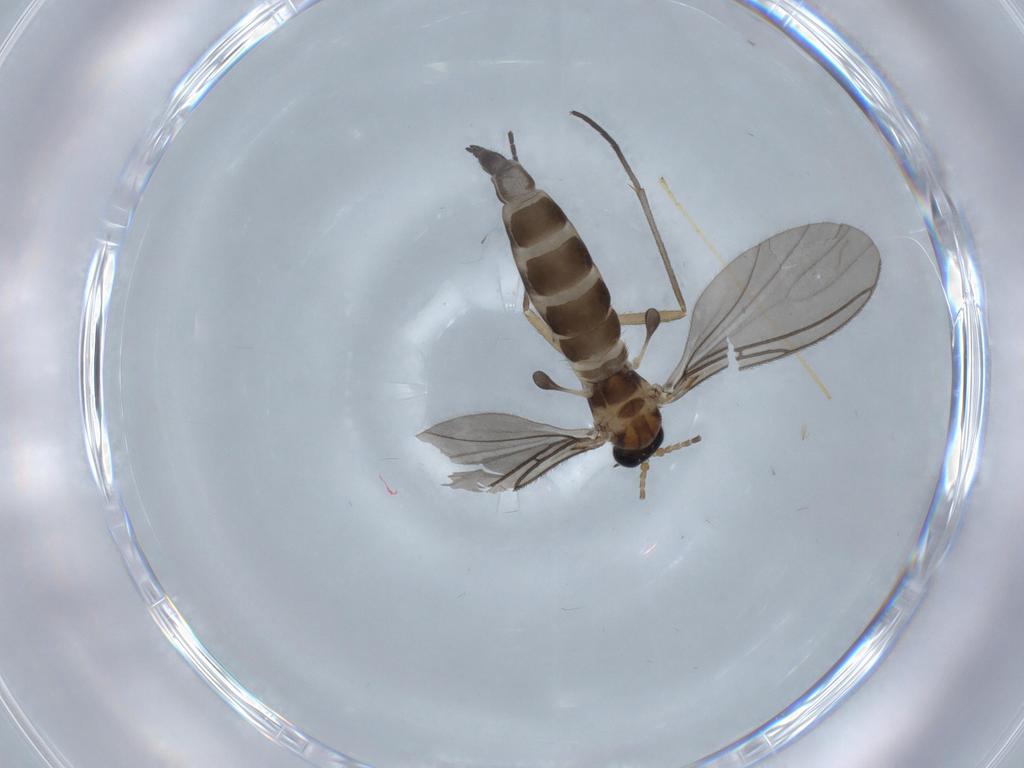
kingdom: Animalia
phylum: Arthropoda
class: Insecta
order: Diptera
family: Sciaridae
